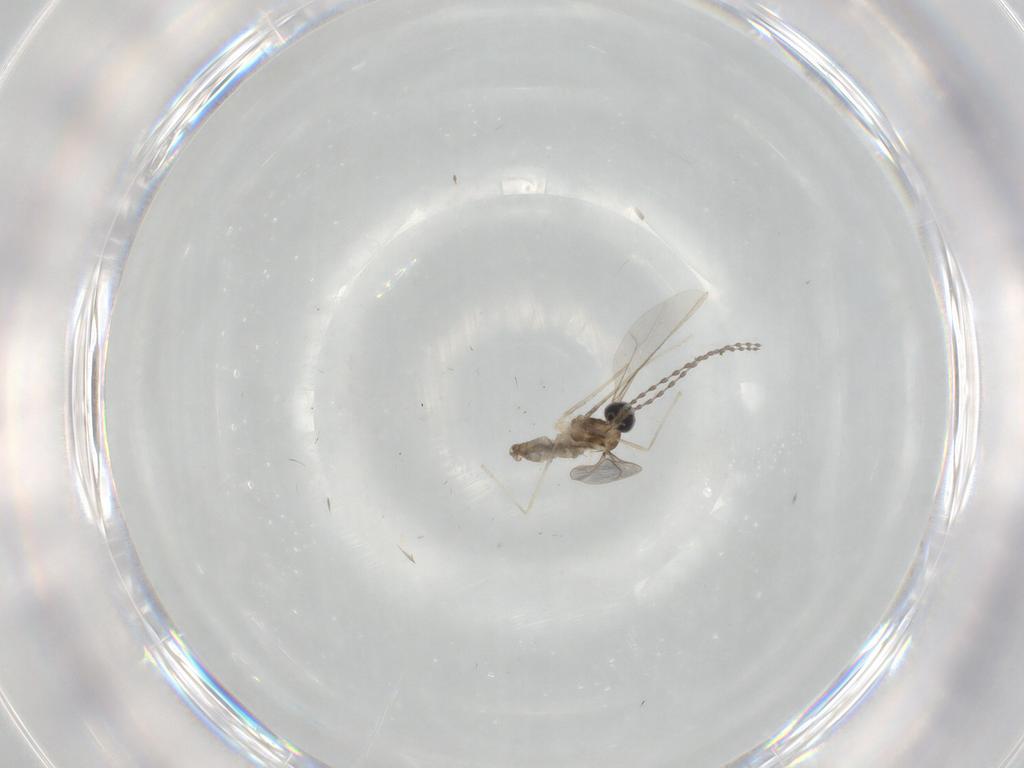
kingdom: Animalia
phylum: Arthropoda
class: Insecta
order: Diptera
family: Cecidomyiidae
